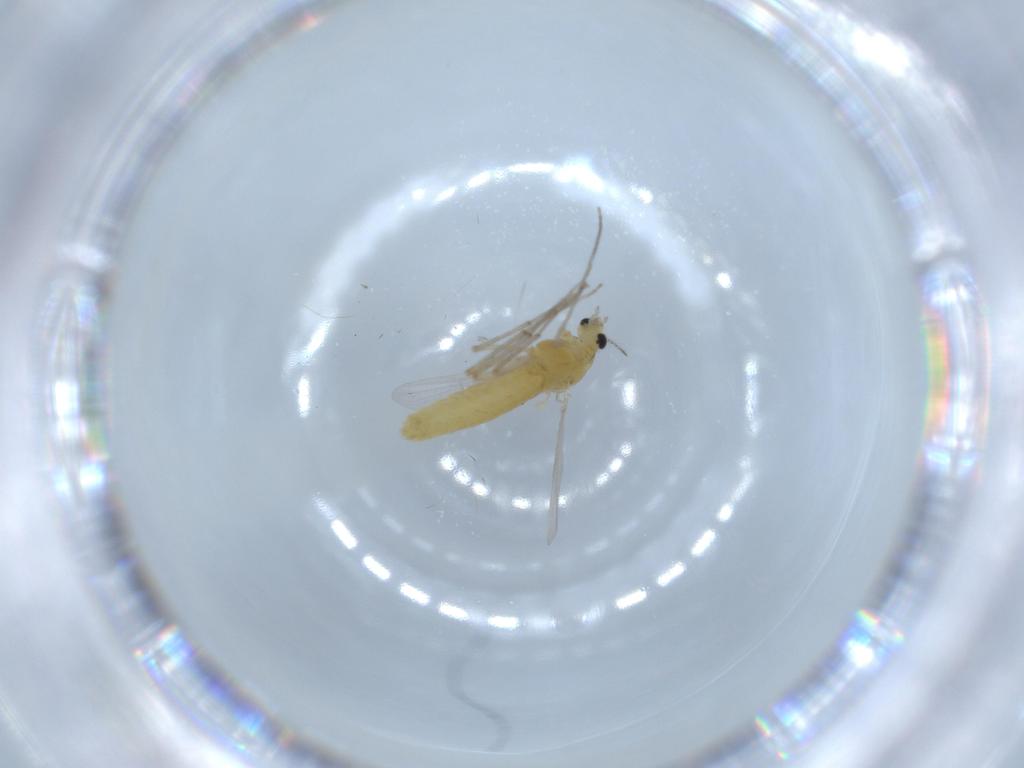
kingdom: Animalia
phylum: Arthropoda
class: Insecta
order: Diptera
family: Chironomidae
